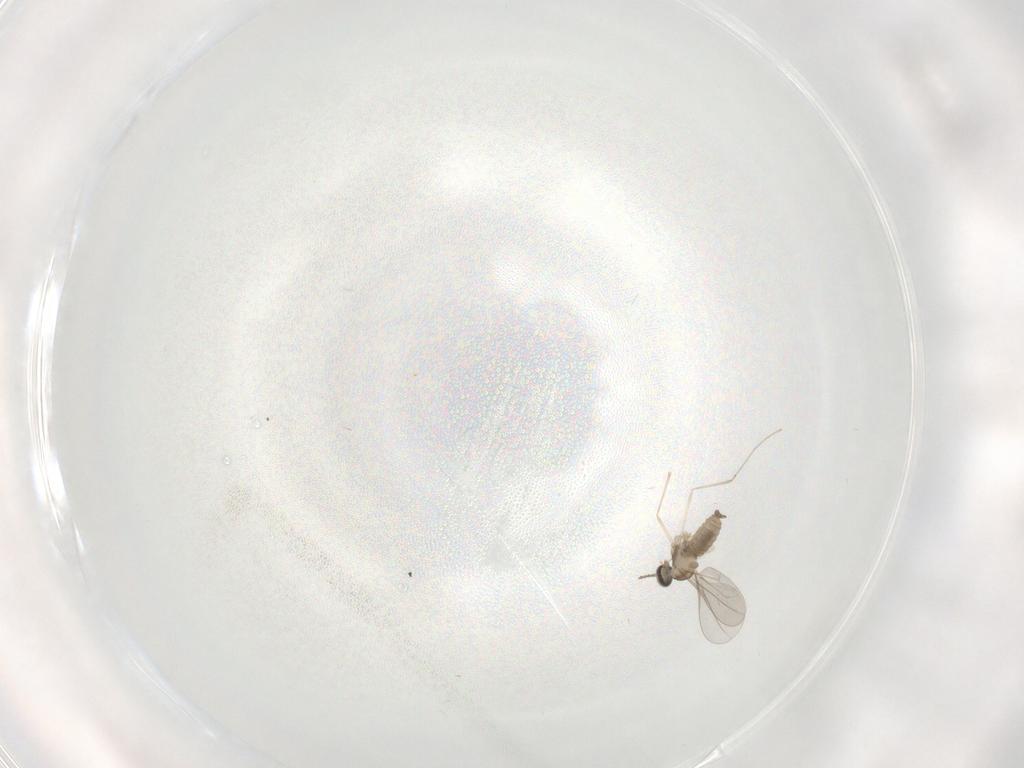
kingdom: Animalia
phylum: Arthropoda
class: Insecta
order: Diptera
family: Cecidomyiidae
